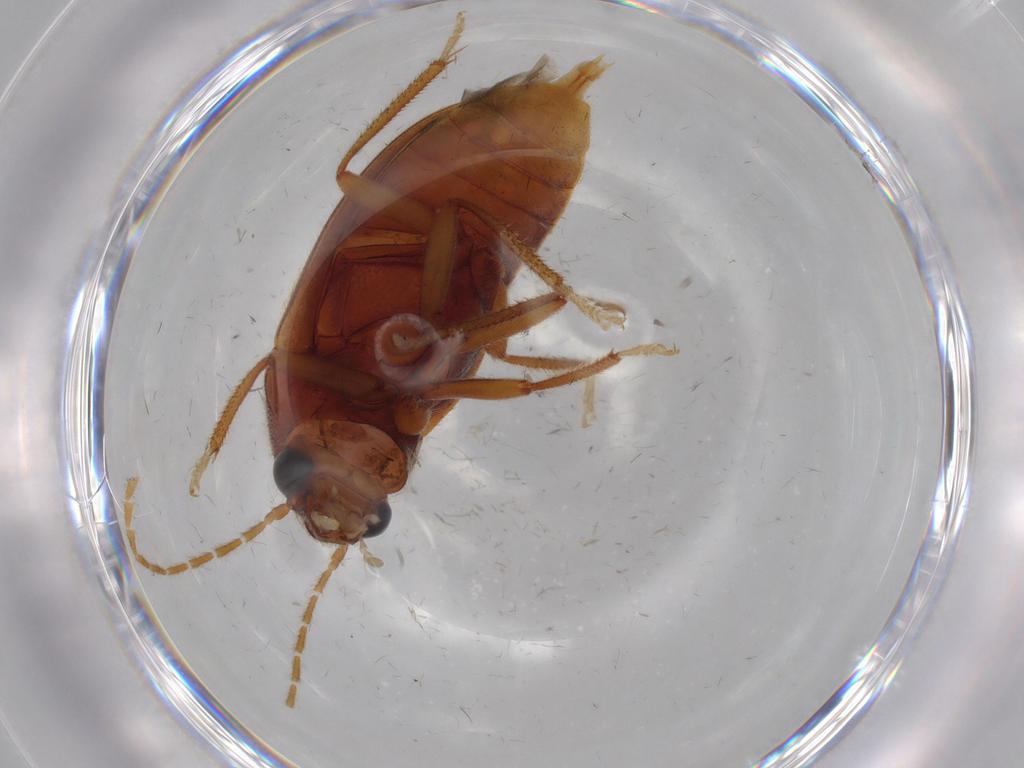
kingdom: Animalia
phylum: Arthropoda
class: Insecta
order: Coleoptera
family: Ptilodactylidae
